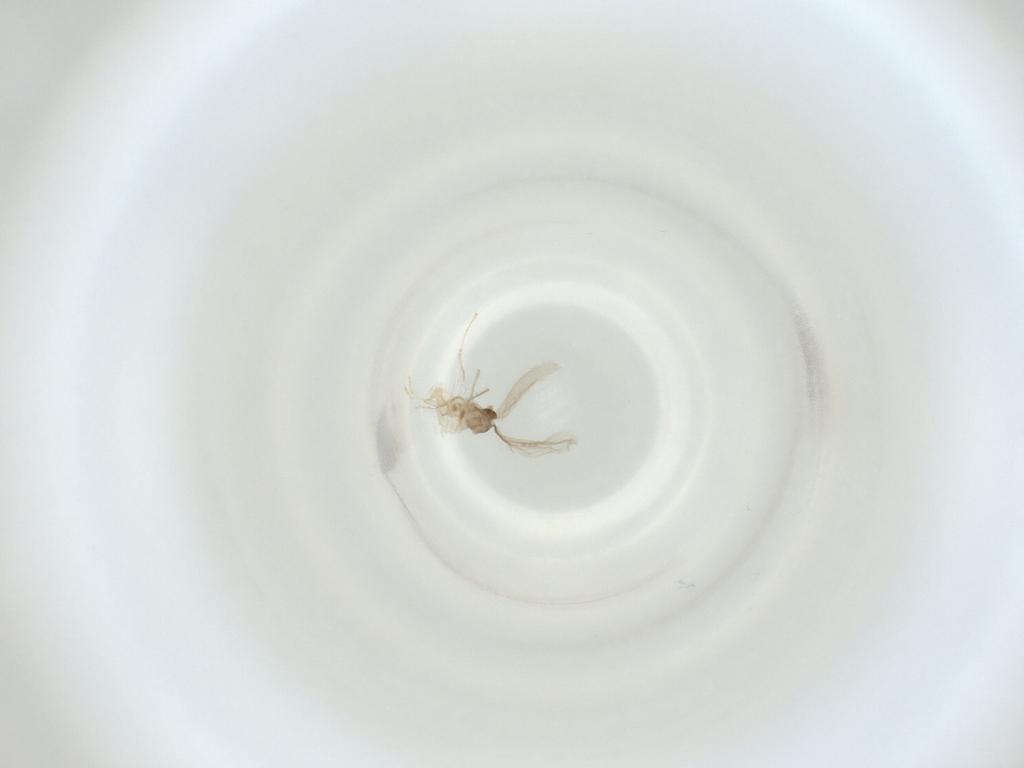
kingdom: Animalia
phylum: Arthropoda
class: Insecta
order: Diptera
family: Cecidomyiidae
